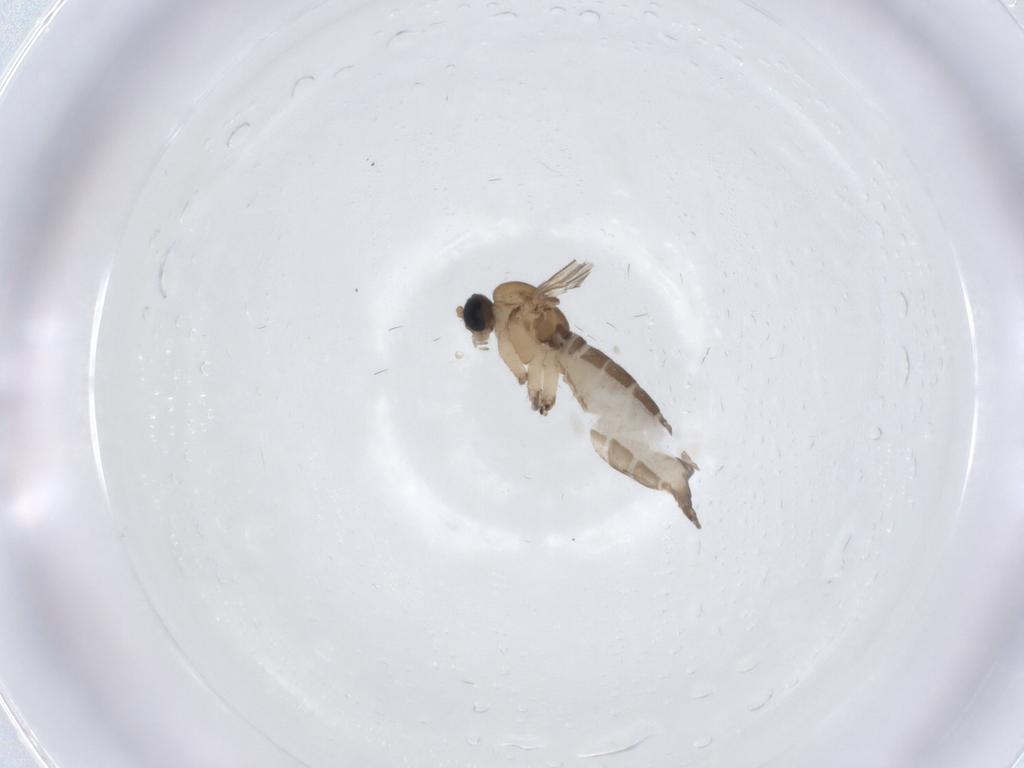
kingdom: Animalia
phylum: Arthropoda
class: Insecta
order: Diptera
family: Sciaridae
